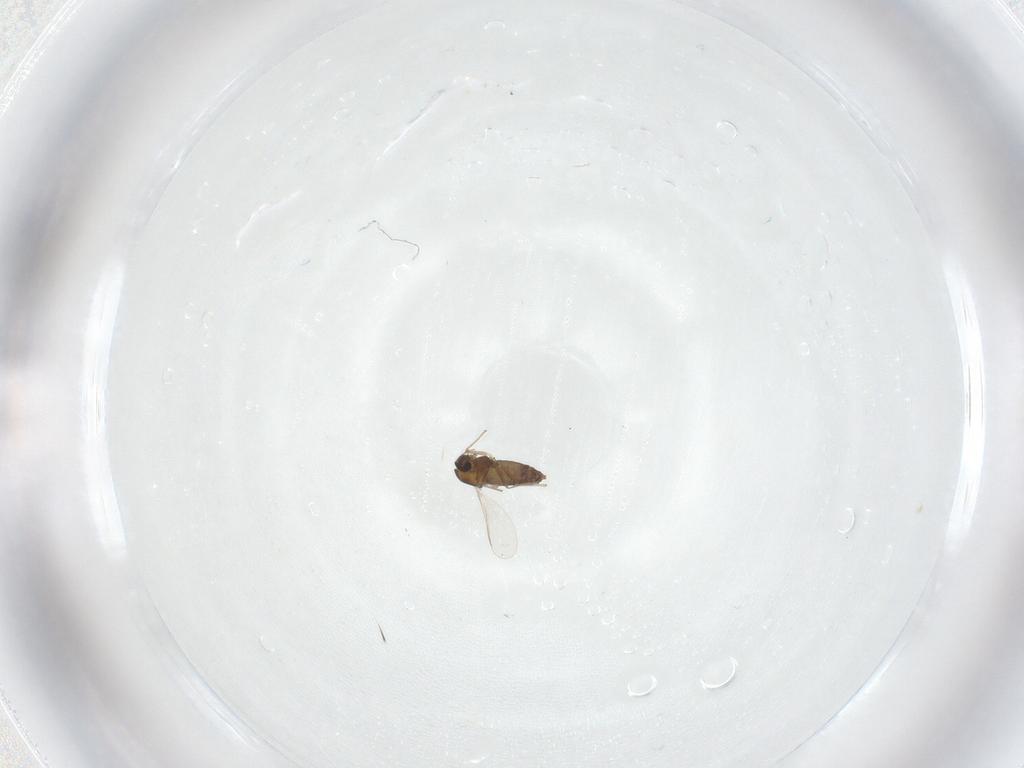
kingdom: Animalia
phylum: Arthropoda
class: Insecta
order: Diptera
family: Chironomidae
